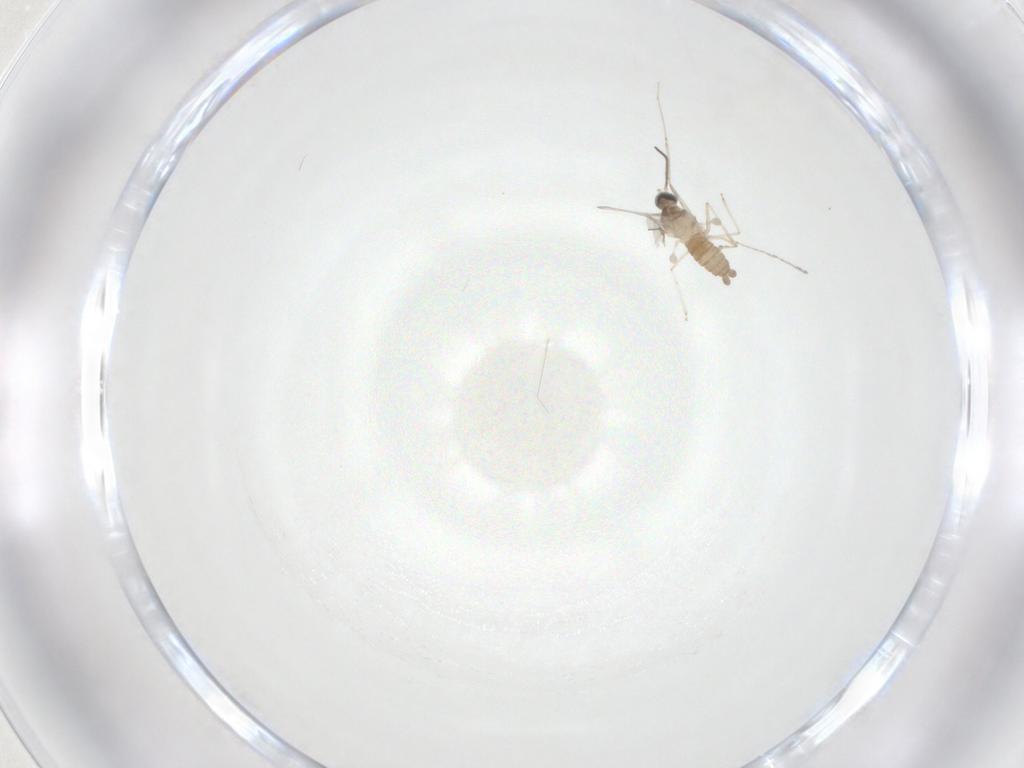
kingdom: Animalia
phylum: Arthropoda
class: Insecta
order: Diptera
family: Cecidomyiidae
